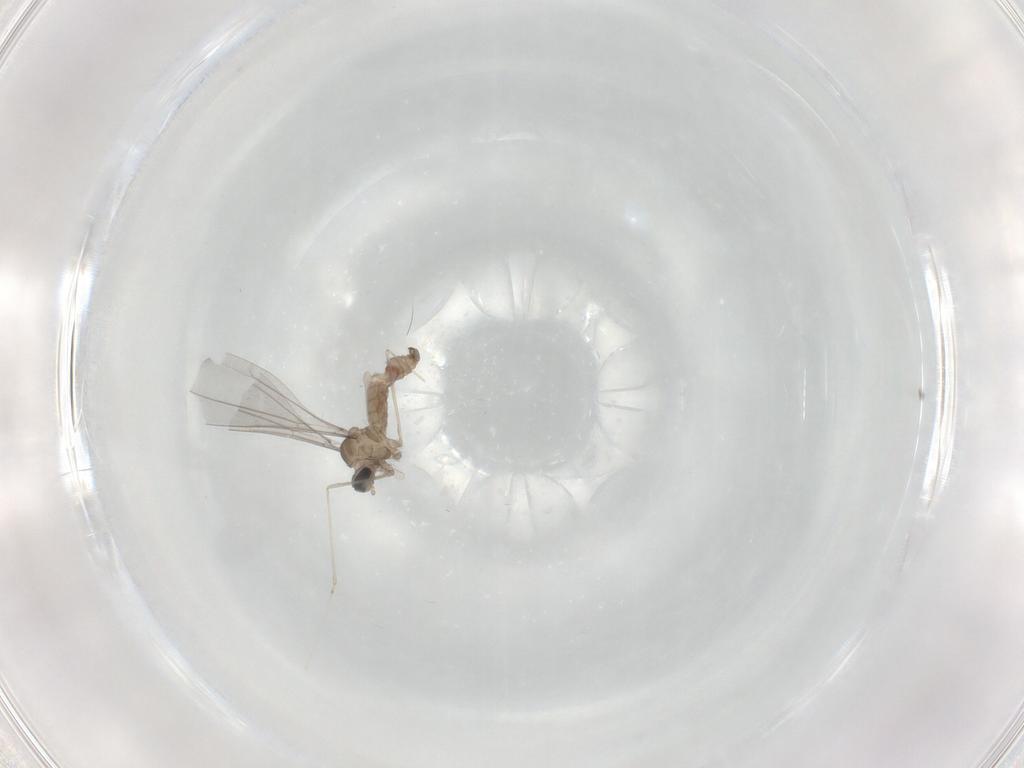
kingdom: Animalia
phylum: Arthropoda
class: Insecta
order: Diptera
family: Cecidomyiidae
